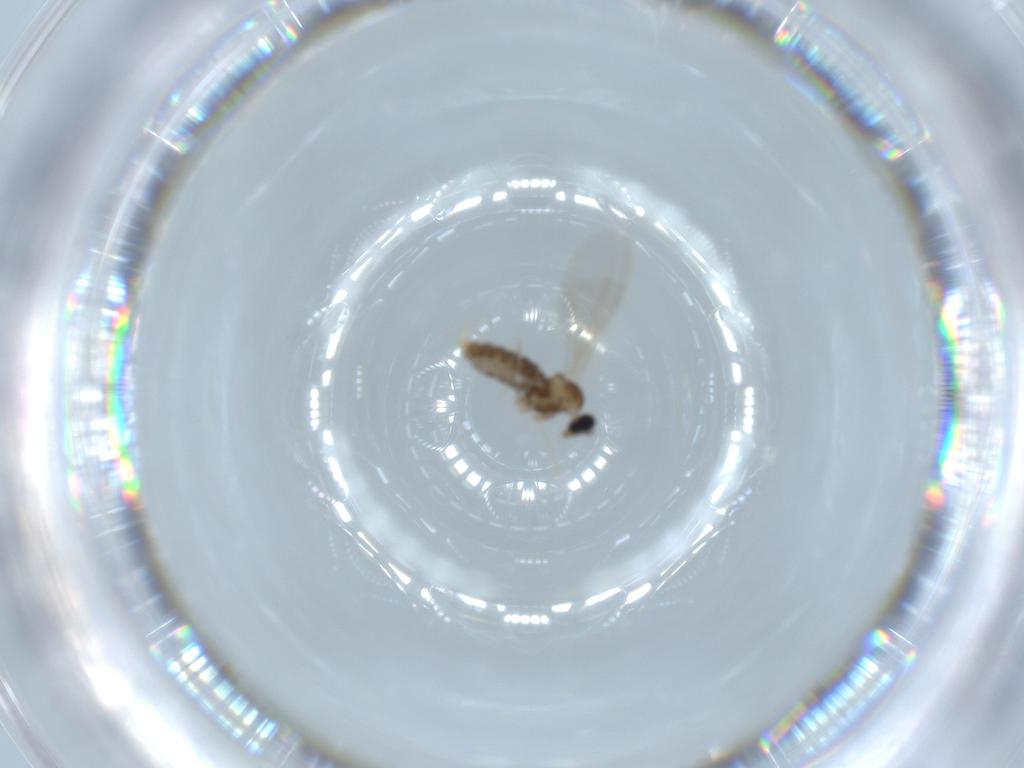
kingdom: Animalia
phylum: Arthropoda
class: Insecta
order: Diptera
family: Cecidomyiidae
